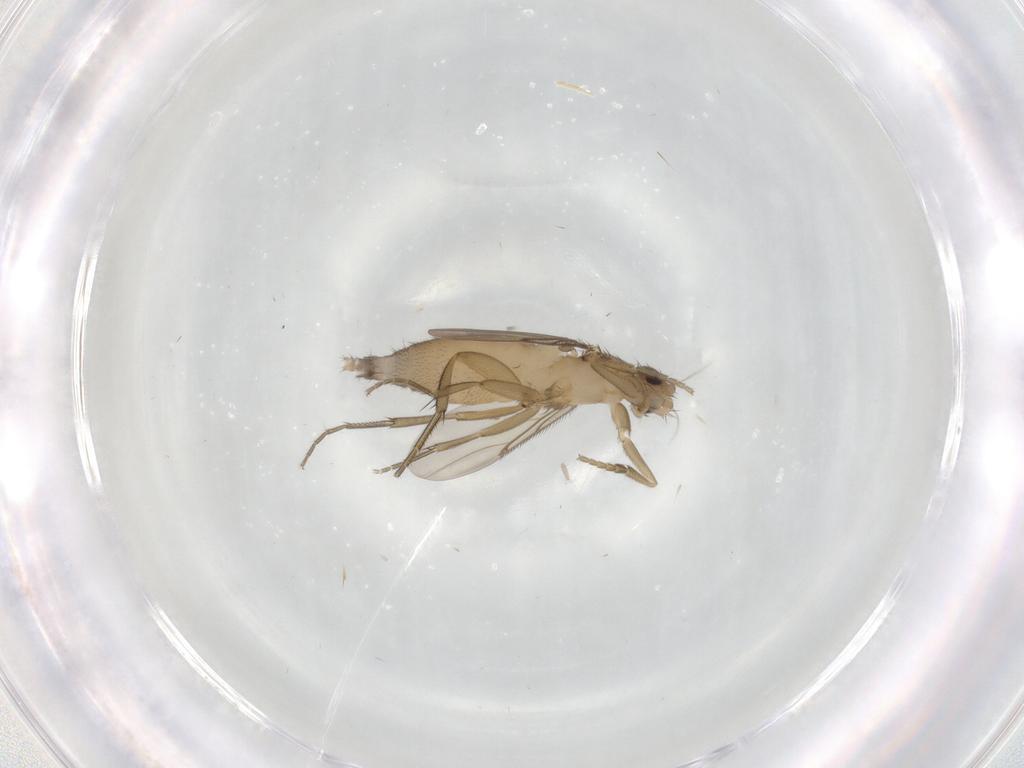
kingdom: Animalia
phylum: Arthropoda
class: Insecta
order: Diptera
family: Phoridae
